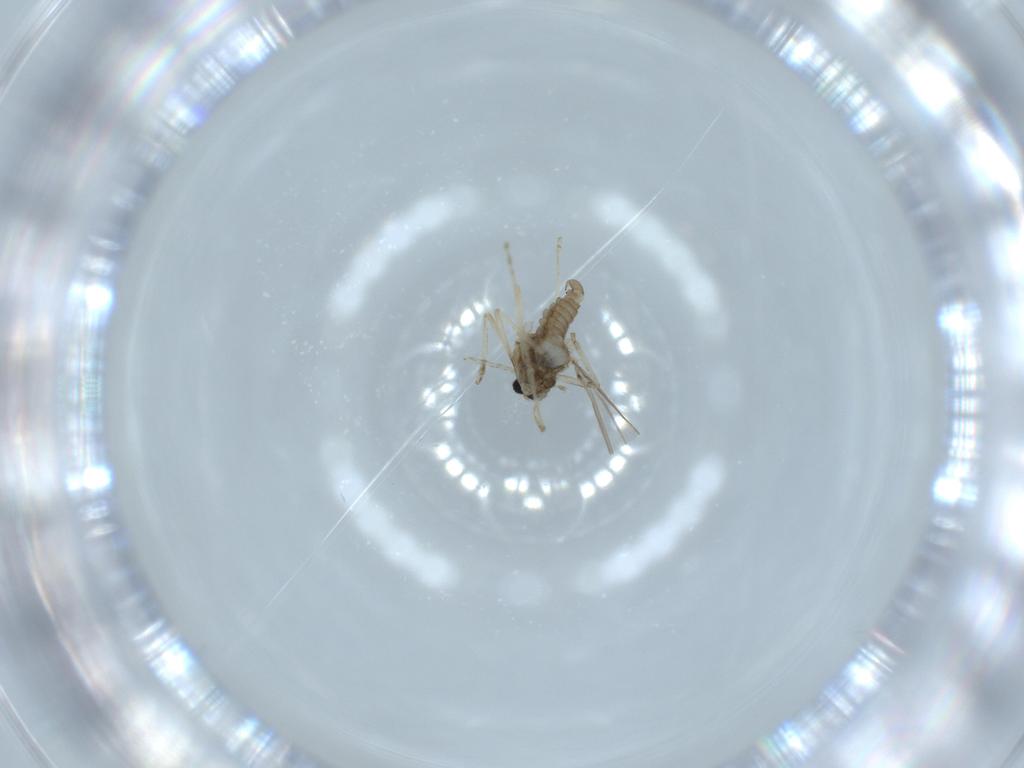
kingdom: Animalia
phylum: Arthropoda
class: Insecta
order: Diptera
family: Cecidomyiidae
